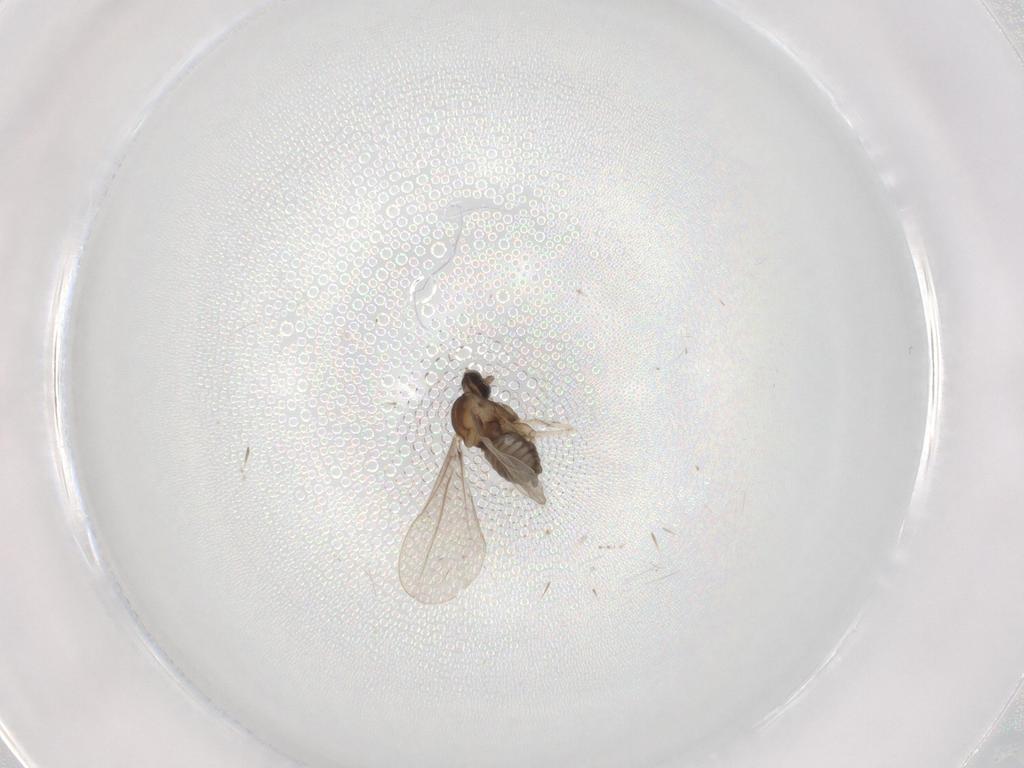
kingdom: Animalia
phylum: Arthropoda
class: Insecta
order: Diptera
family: Cecidomyiidae
